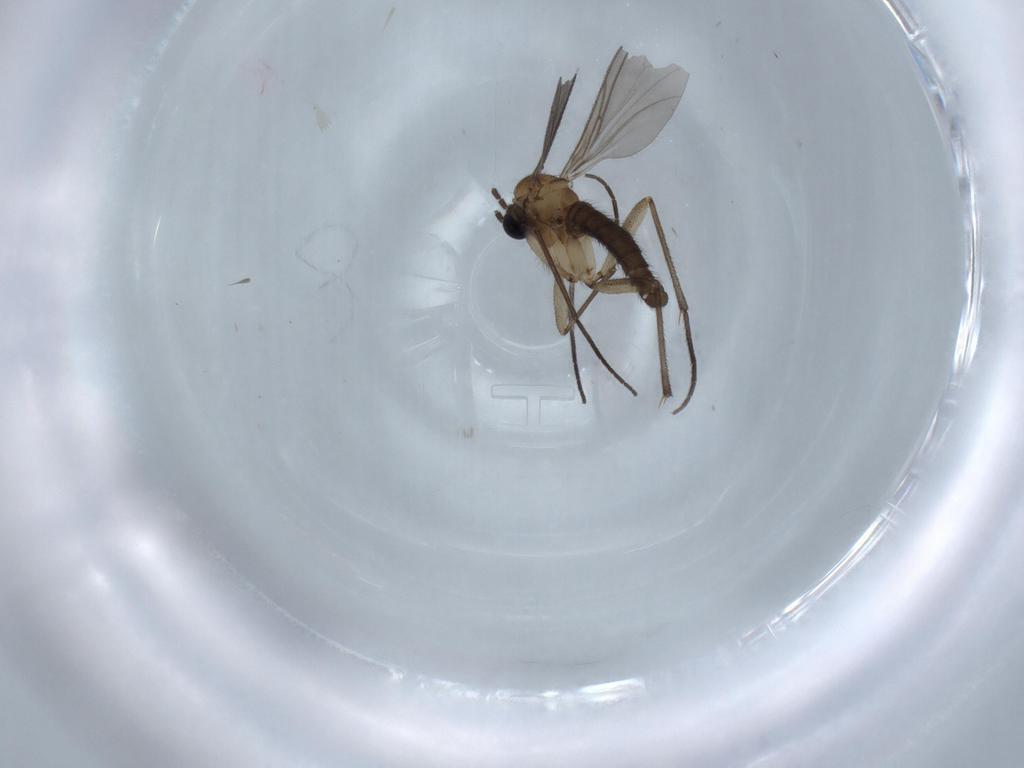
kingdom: Animalia
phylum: Arthropoda
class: Insecta
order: Diptera
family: Sciaridae
